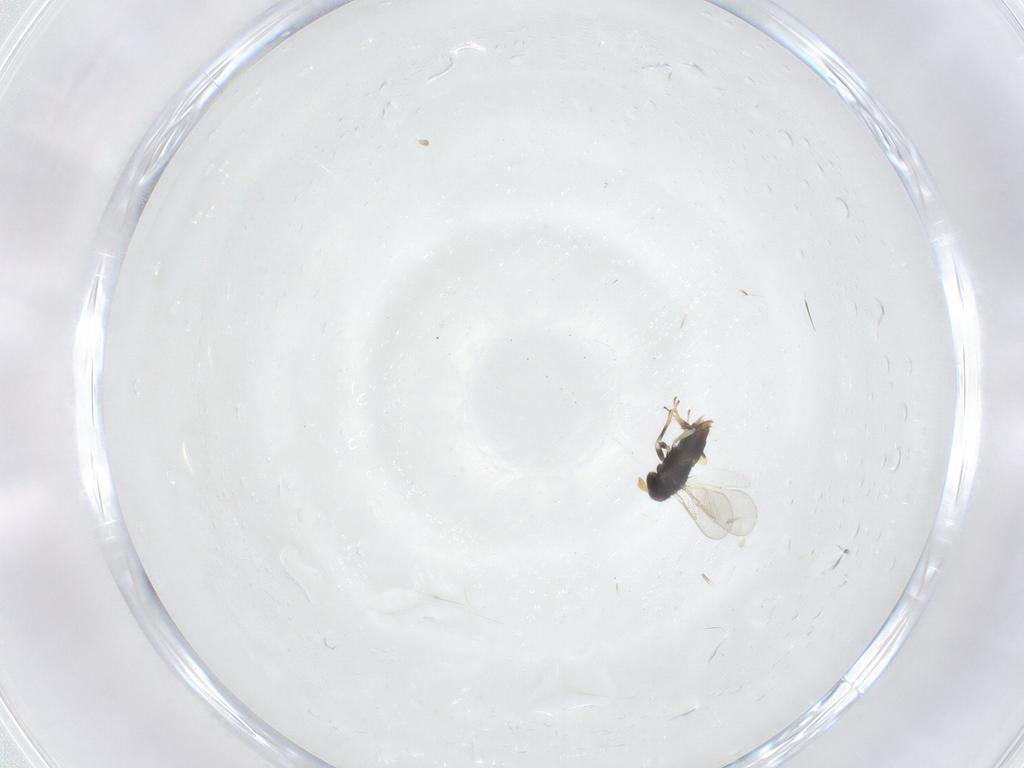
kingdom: Animalia
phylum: Arthropoda
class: Insecta
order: Hymenoptera
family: Aphelinidae
